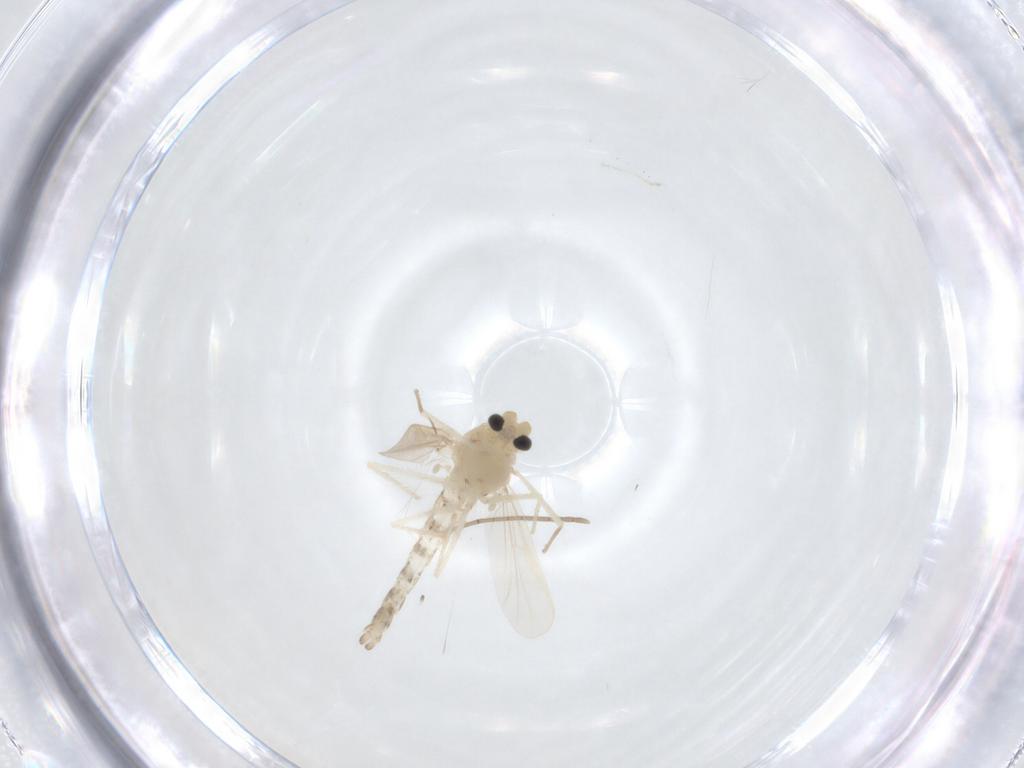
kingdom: Animalia
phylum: Arthropoda
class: Insecta
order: Diptera
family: Chironomidae
